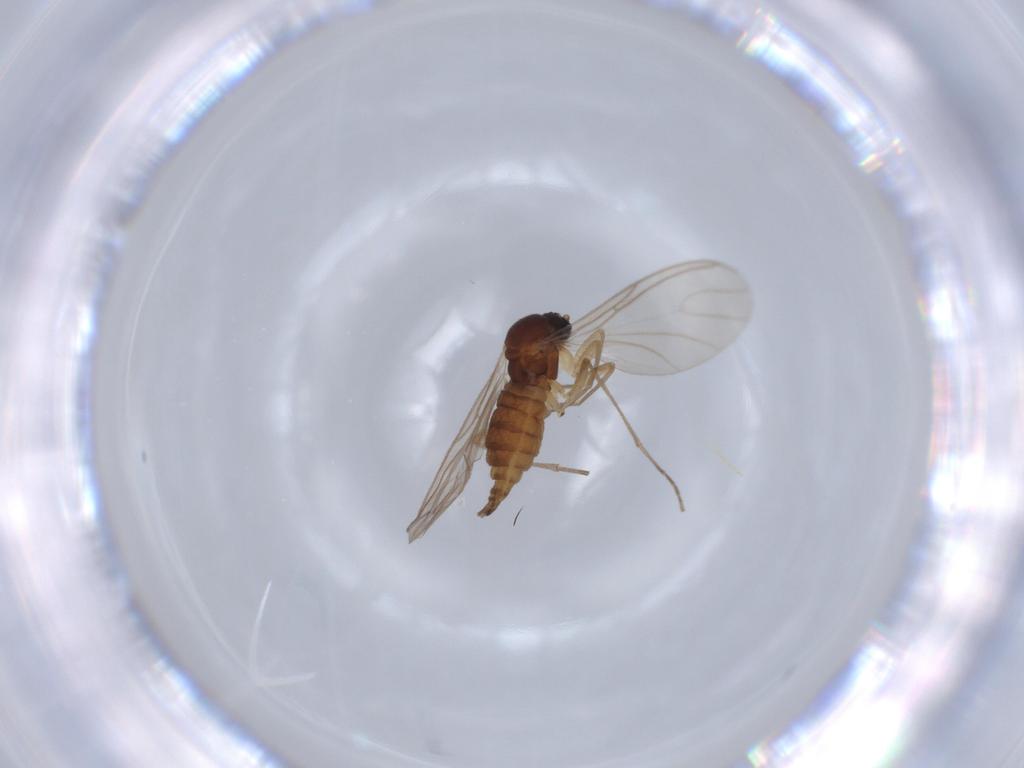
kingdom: Animalia
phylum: Arthropoda
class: Insecta
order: Diptera
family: Sciaridae
